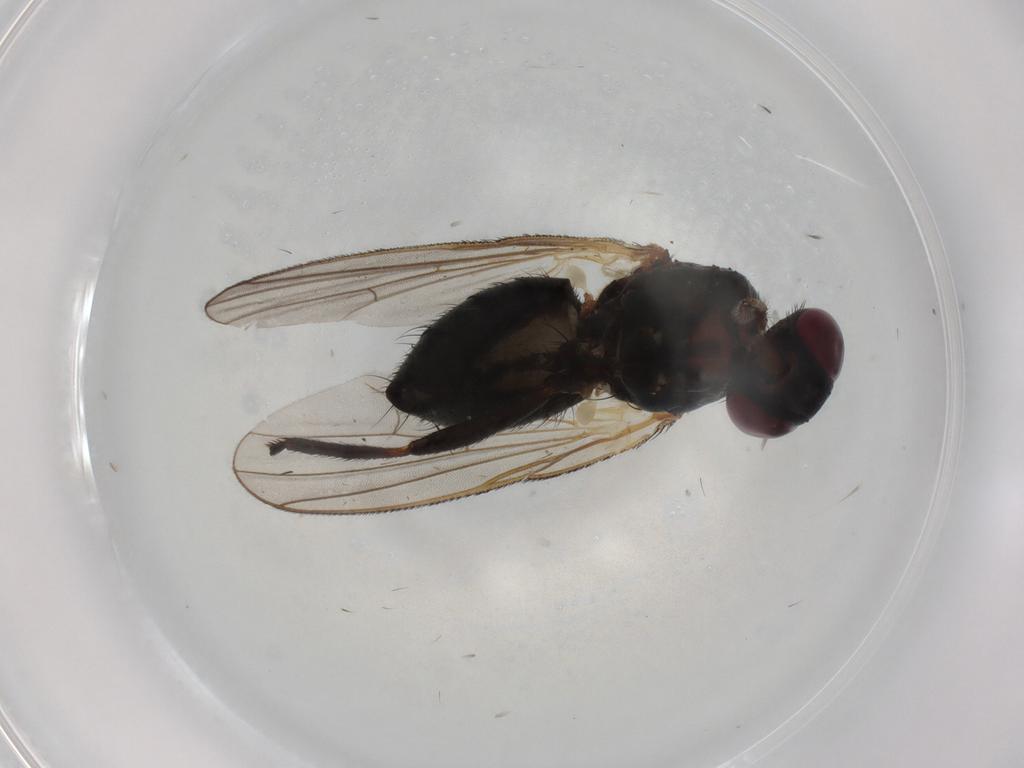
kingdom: Animalia
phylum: Arthropoda
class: Insecta
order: Diptera
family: Fannia
